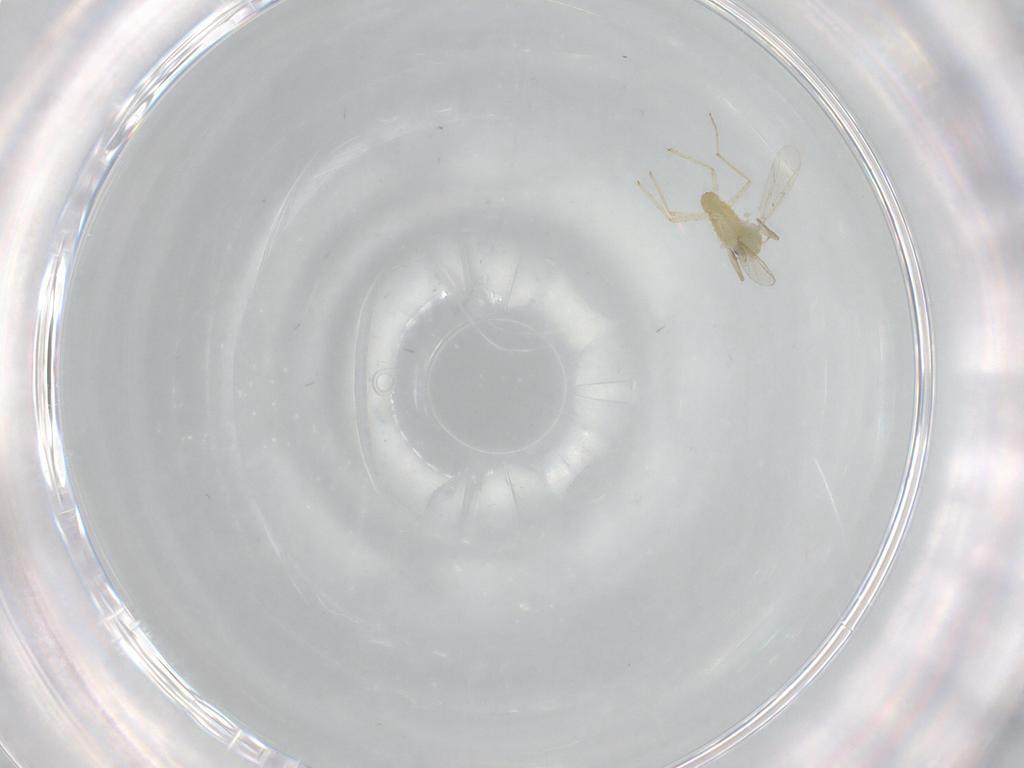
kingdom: Animalia
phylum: Arthropoda
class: Insecta
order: Diptera
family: Chironomidae
